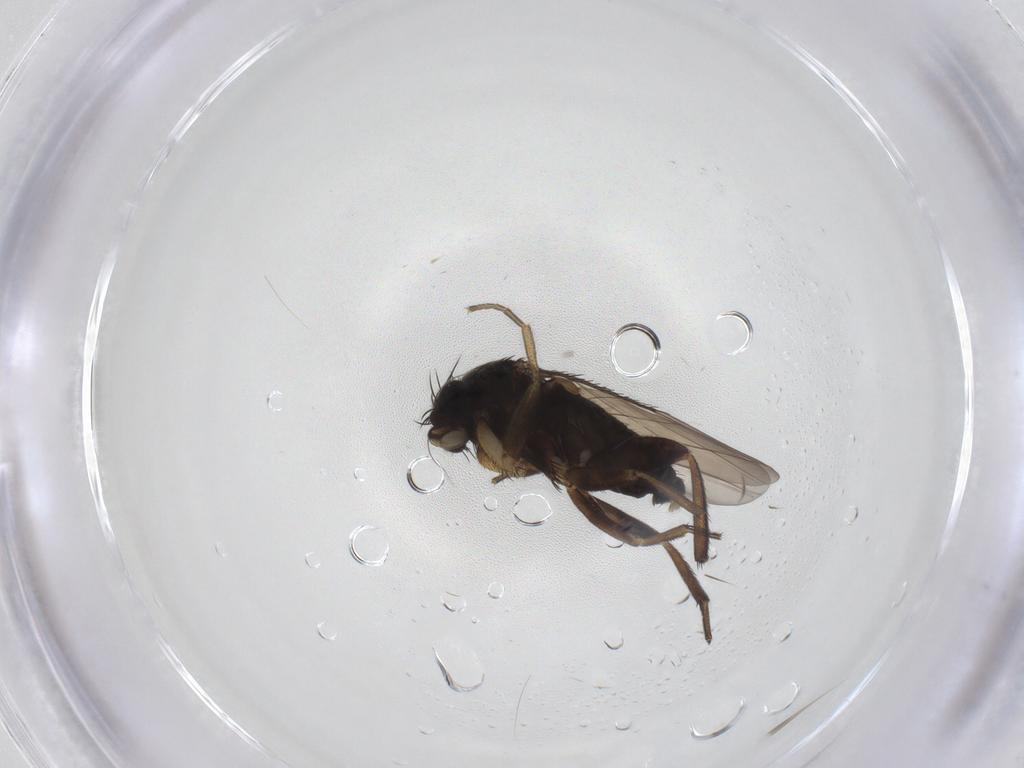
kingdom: Animalia
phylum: Arthropoda
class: Insecta
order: Diptera
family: Phoridae
